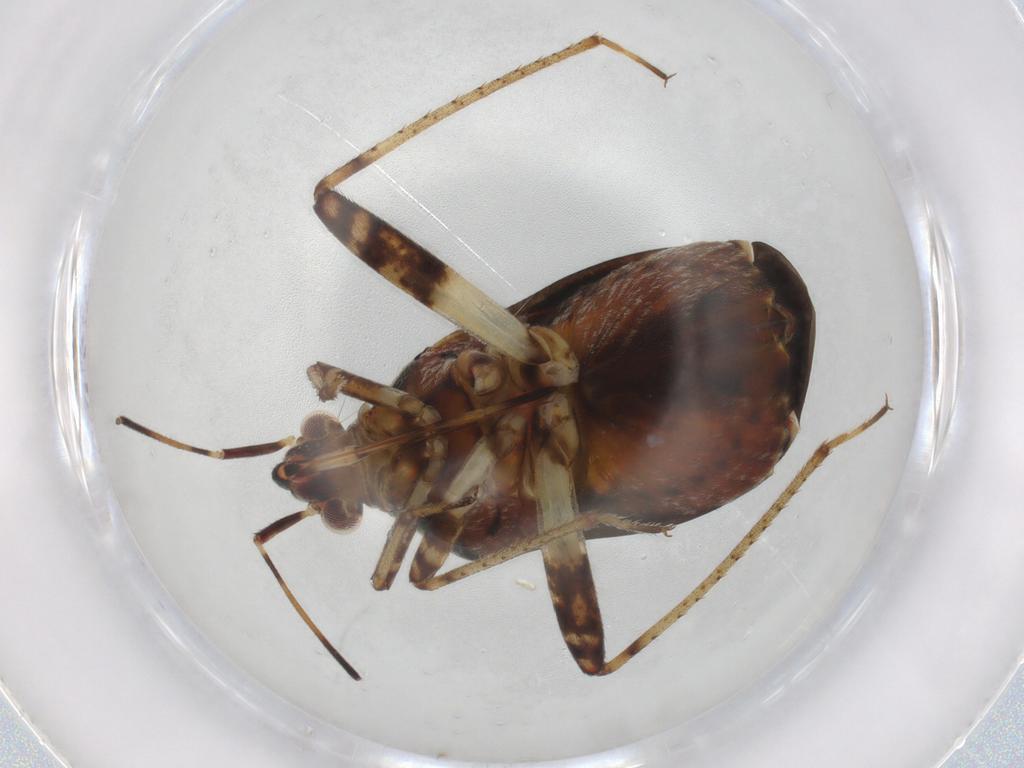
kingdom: Animalia
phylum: Arthropoda
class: Insecta
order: Hemiptera
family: Miridae
